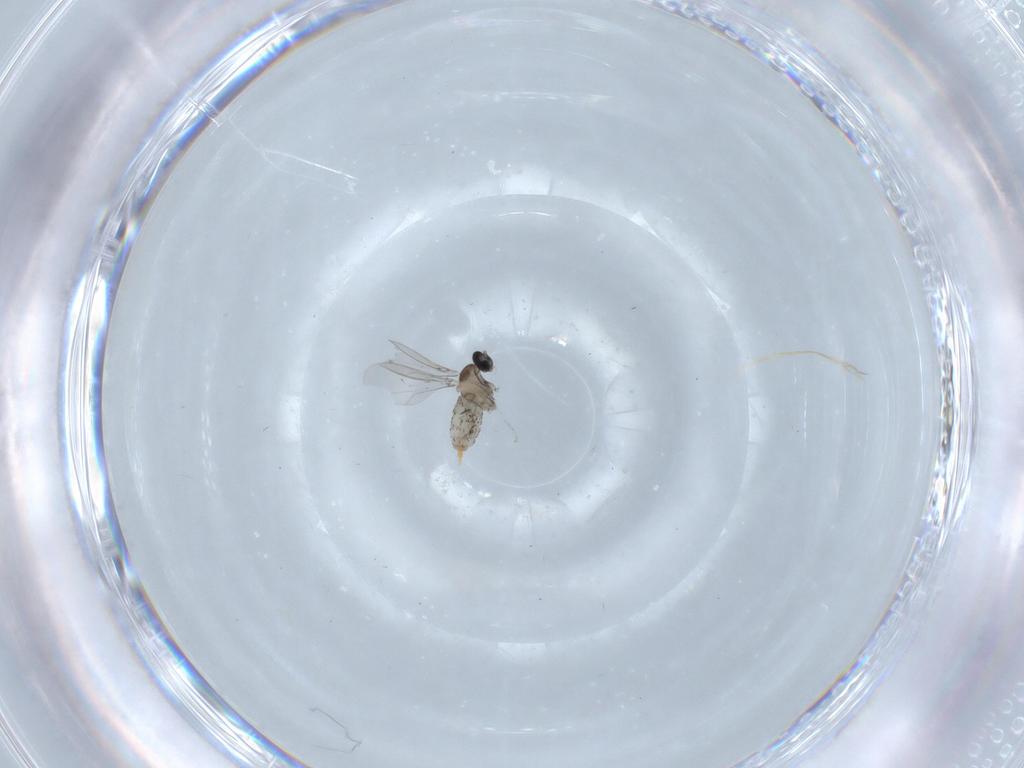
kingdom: Animalia
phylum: Arthropoda
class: Insecta
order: Diptera
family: Cecidomyiidae
